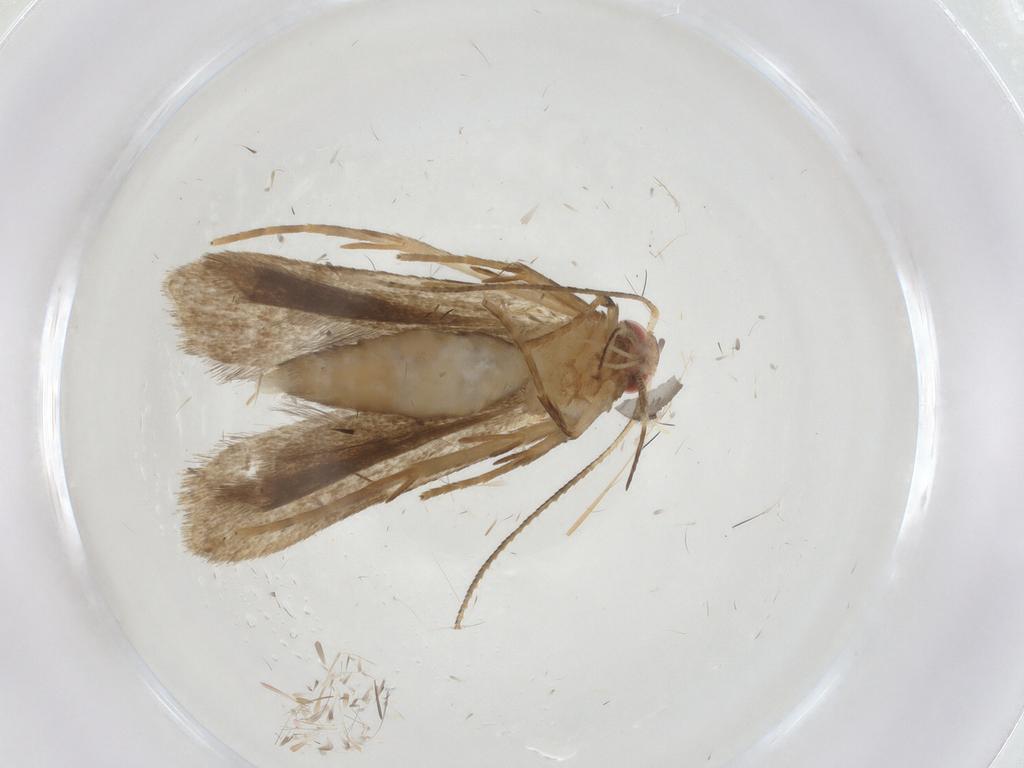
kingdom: Animalia
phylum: Arthropoda
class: Insecta
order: Lepidoptera
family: Gelechiidae
